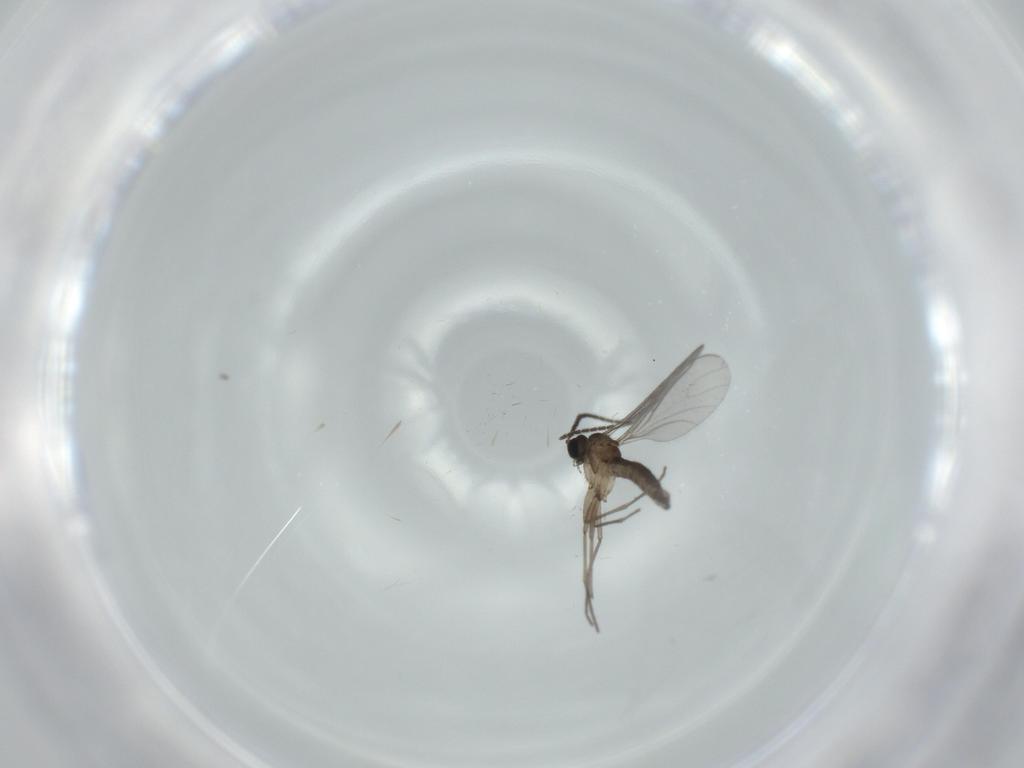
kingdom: Animalia
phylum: Arthropoda
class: Insecta
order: Diptera
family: Sciaridae
